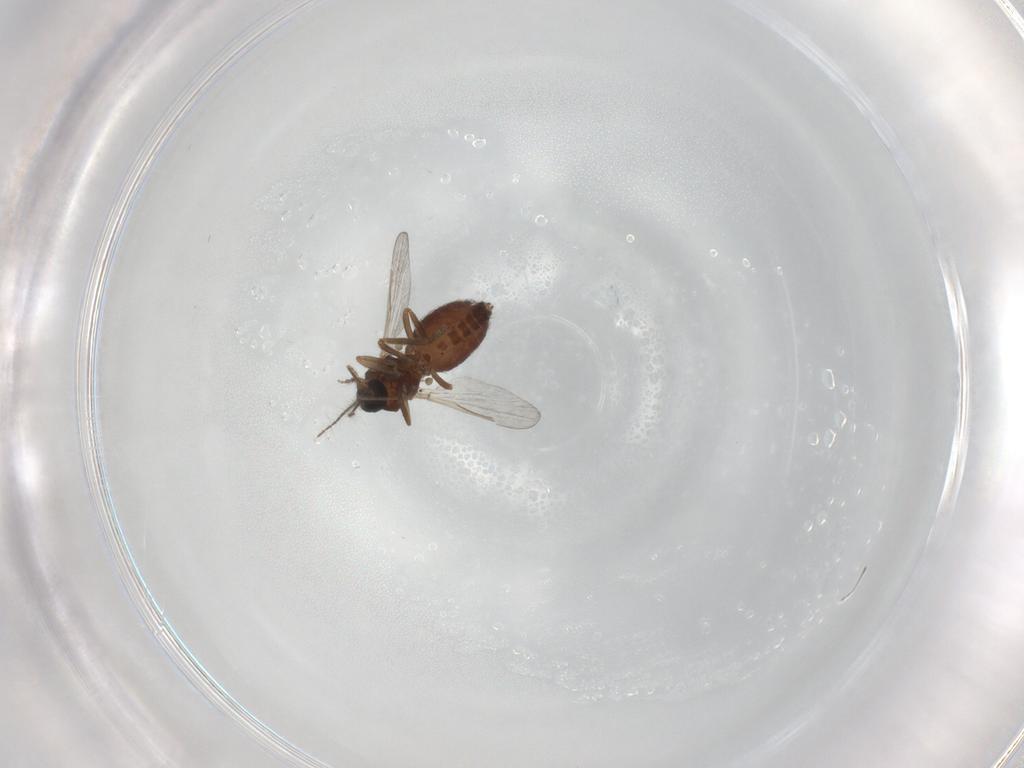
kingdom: Animalia
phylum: Arthropoda
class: Insecta
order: Diptera
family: Ceratopogonidae
